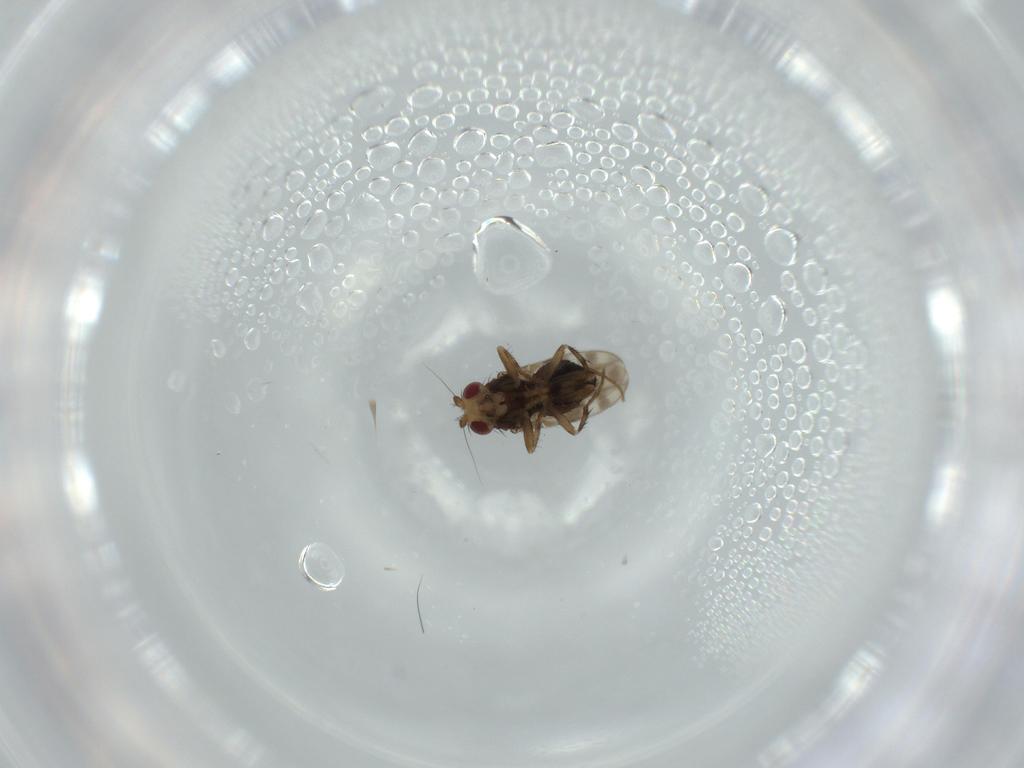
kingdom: Animalia
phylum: Arthropoda
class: Insecta
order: Diptera
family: Sphaeroceridae
